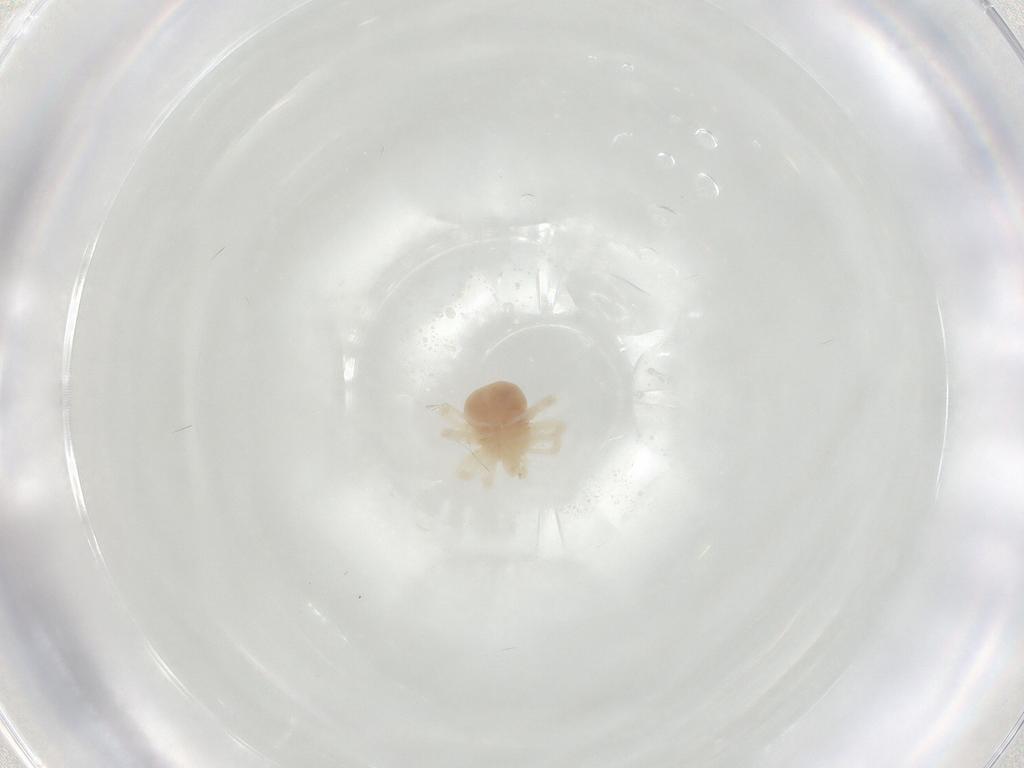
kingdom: Animalia
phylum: Arthropoda
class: Arachnida
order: Trombidiformes
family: Anystidae
